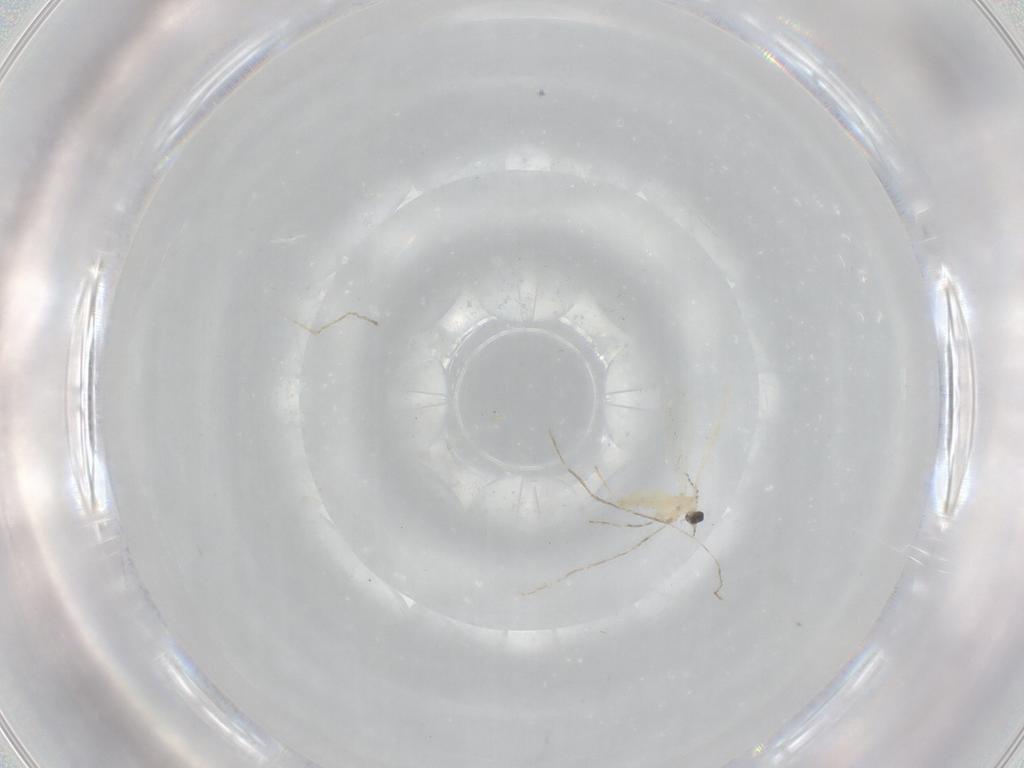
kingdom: Animalia
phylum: Arthropoda
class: Insecta
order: Diptera
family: Cecidomyiidae
